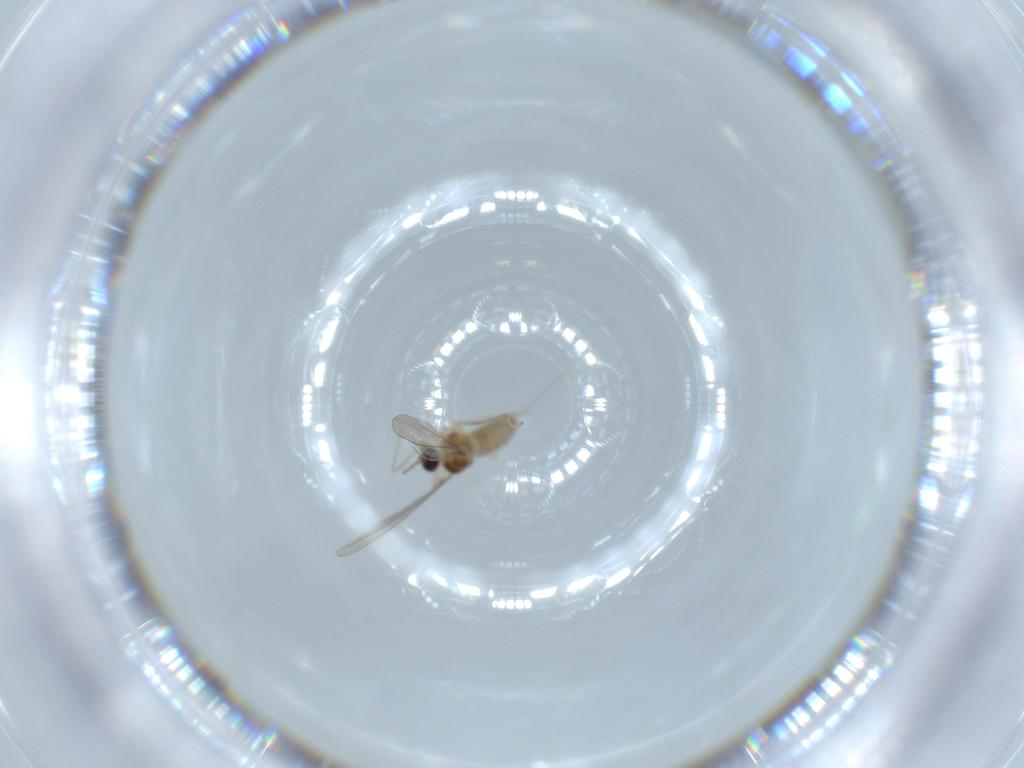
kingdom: Animalia
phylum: Arthropoda
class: Insecta
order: Diptera
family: Cecidomyiidae
